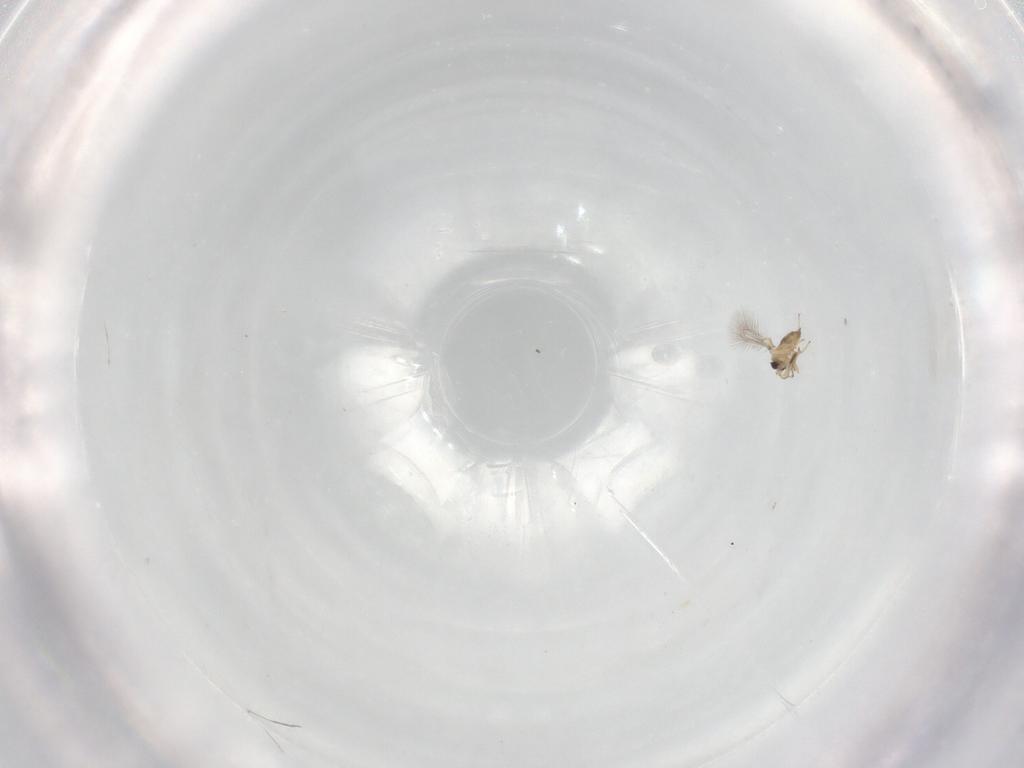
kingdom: Animalia
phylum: Arthropoda
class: Insecta
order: Hymenoptera
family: Mymaridae
